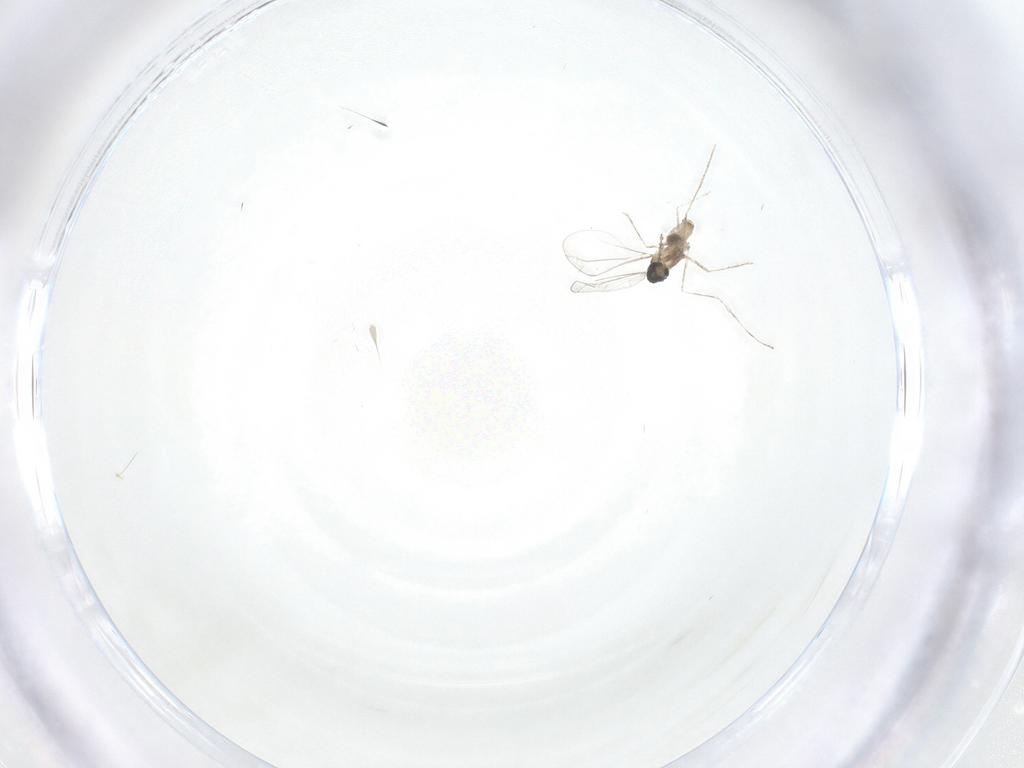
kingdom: Animalia
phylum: Arthropoda
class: Insecta
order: Diptera
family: Cecidomyiidae
